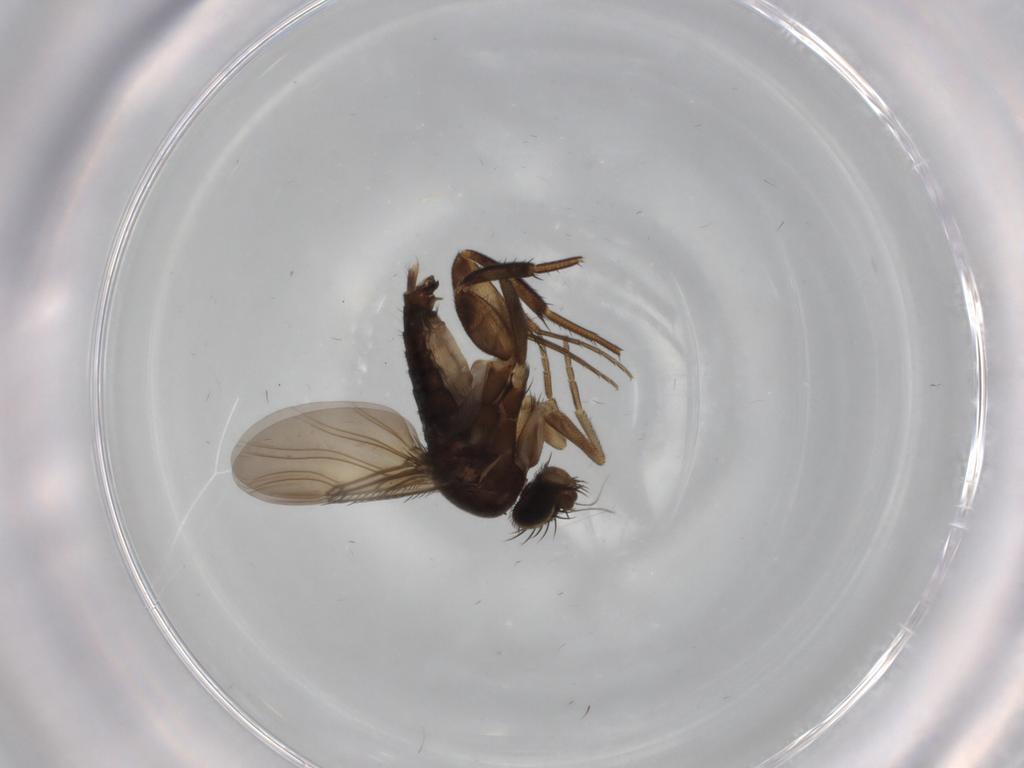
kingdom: Animalia
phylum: Arthropoda
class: Insecta
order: Diptera
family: Phoridae
